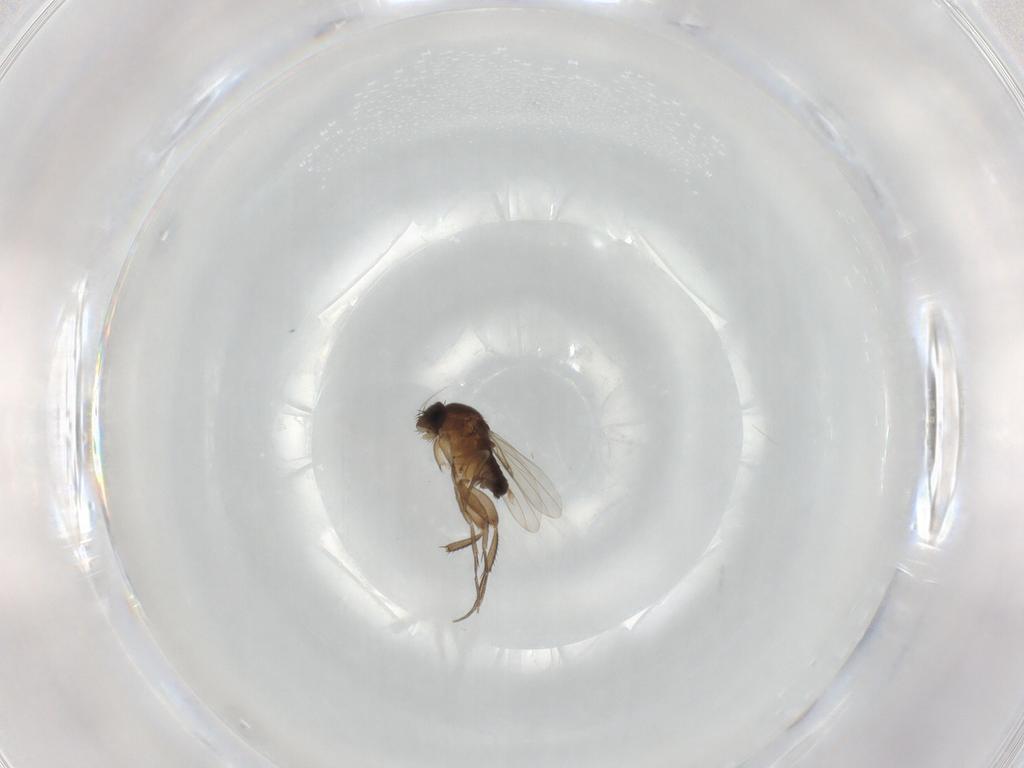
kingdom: Animalia
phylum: Arthropoda
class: Insecta
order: Diptera
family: Phoridae
